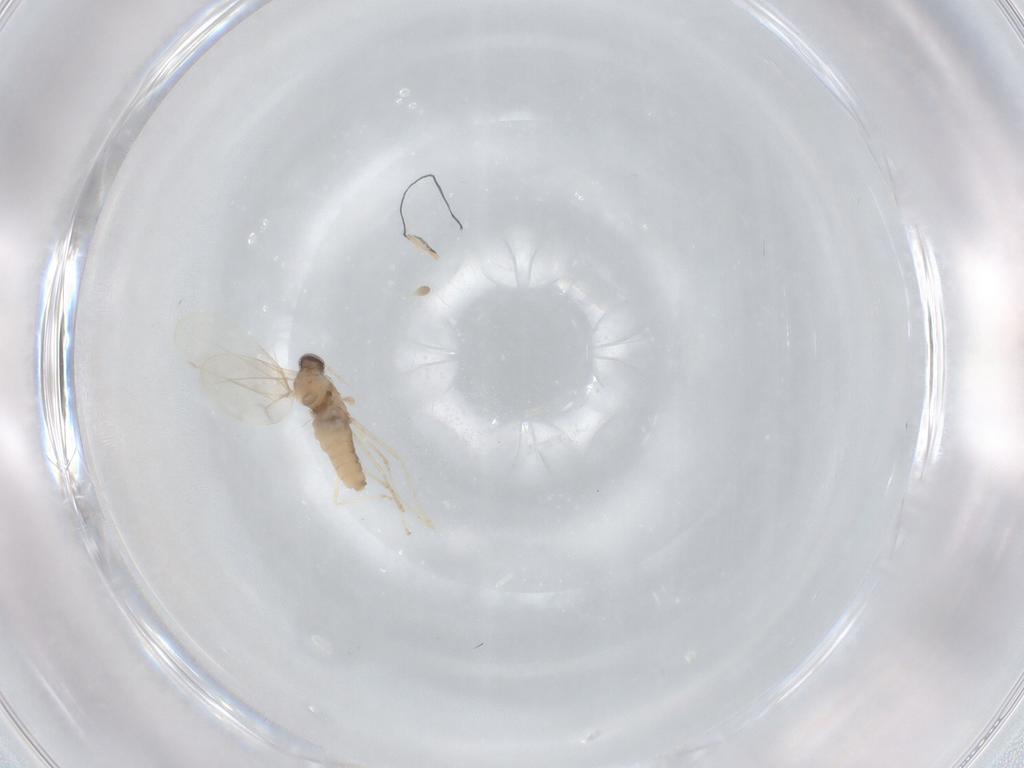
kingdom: Animalia
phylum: Arthropoda
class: Insecta
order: Diptera
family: Cecidomyiidae
